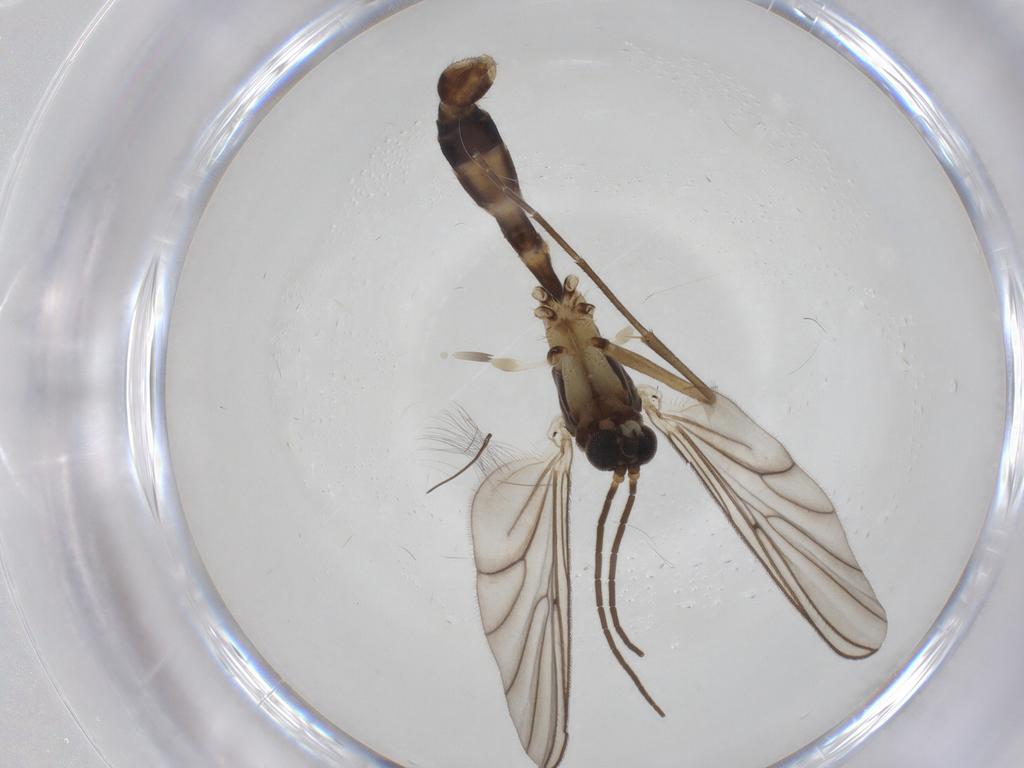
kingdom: Animalia
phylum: Arthropoda
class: Insecta
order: Diptera
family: Mycetophilidae
